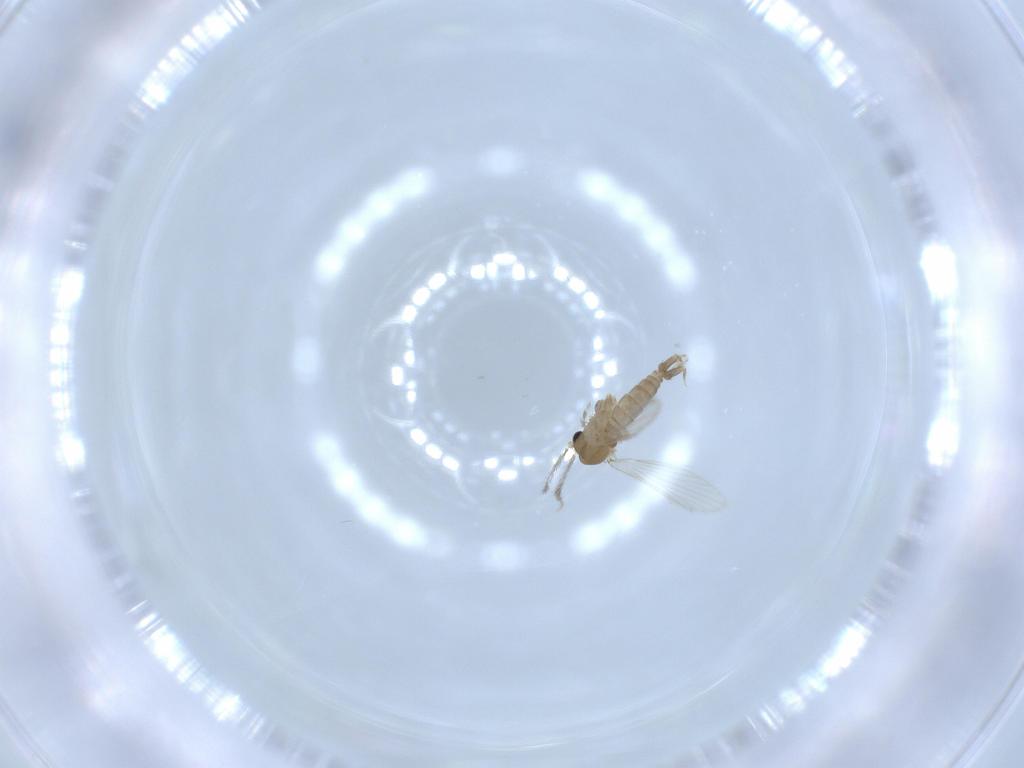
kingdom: Animalia
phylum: Arthropoda
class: Insecta
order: Diptera
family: Psychodidae
